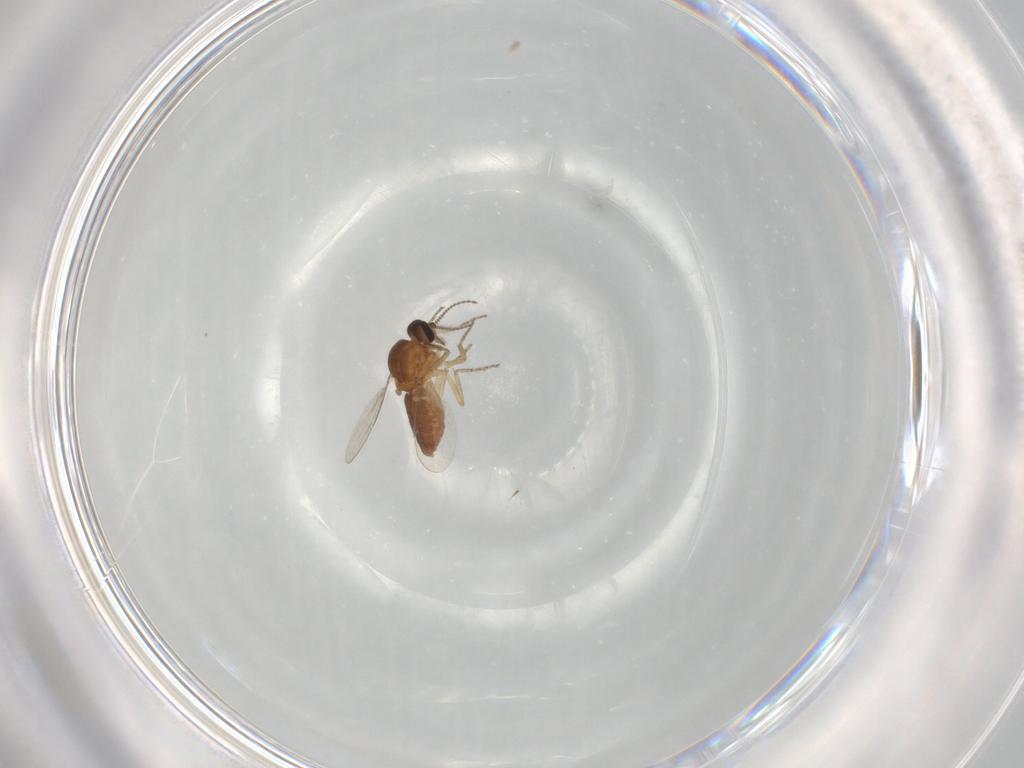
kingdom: Animalia
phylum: Arthropoda
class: Insecta
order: Diptera
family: Ceratopogonidae
